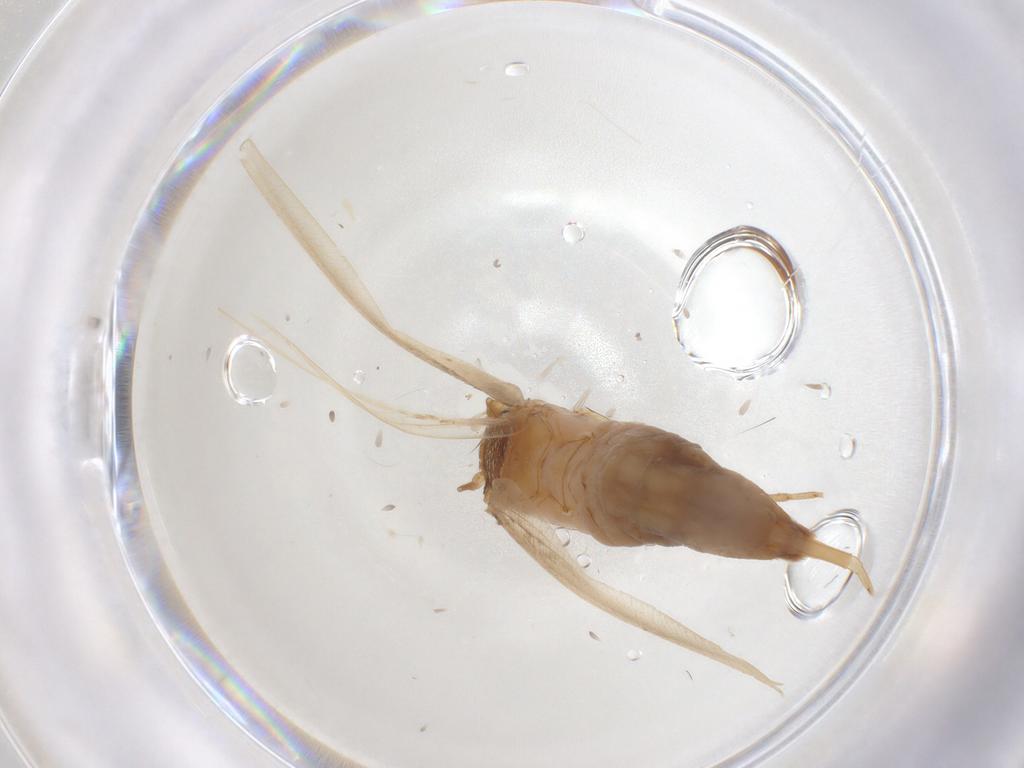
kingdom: Animalia
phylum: Arthropoda
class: Insecta
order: Lepidoptera
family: Tineidae
